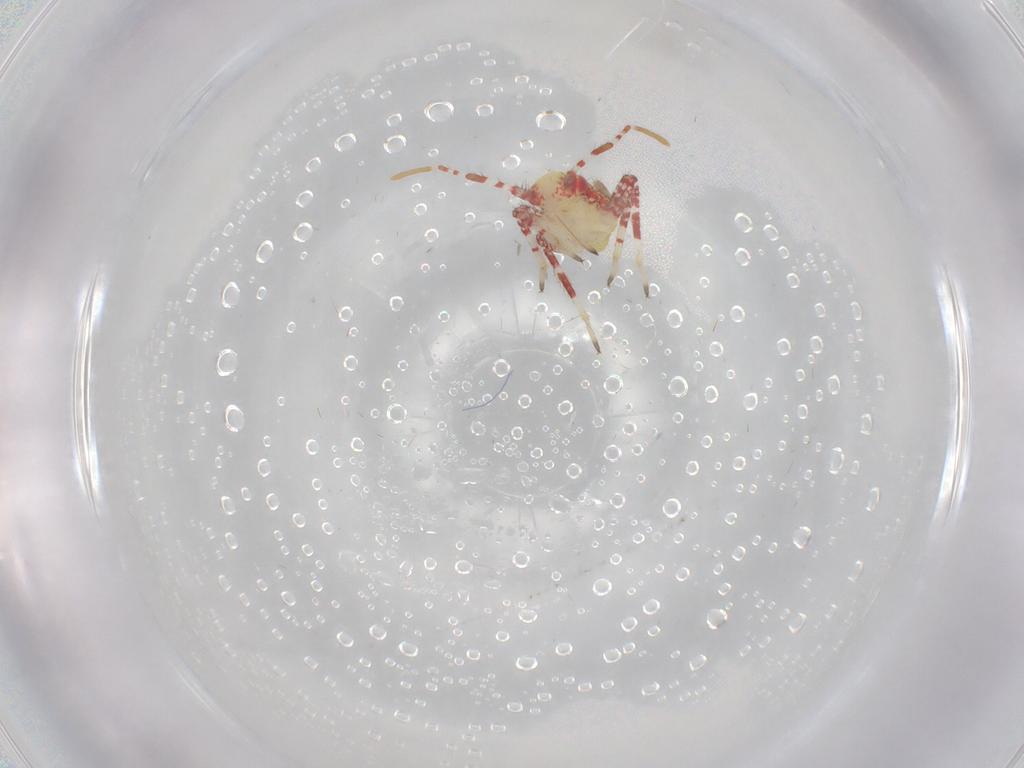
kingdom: Animalia
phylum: Arthropoda
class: Insecta
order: Hemiptera
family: Miridae
